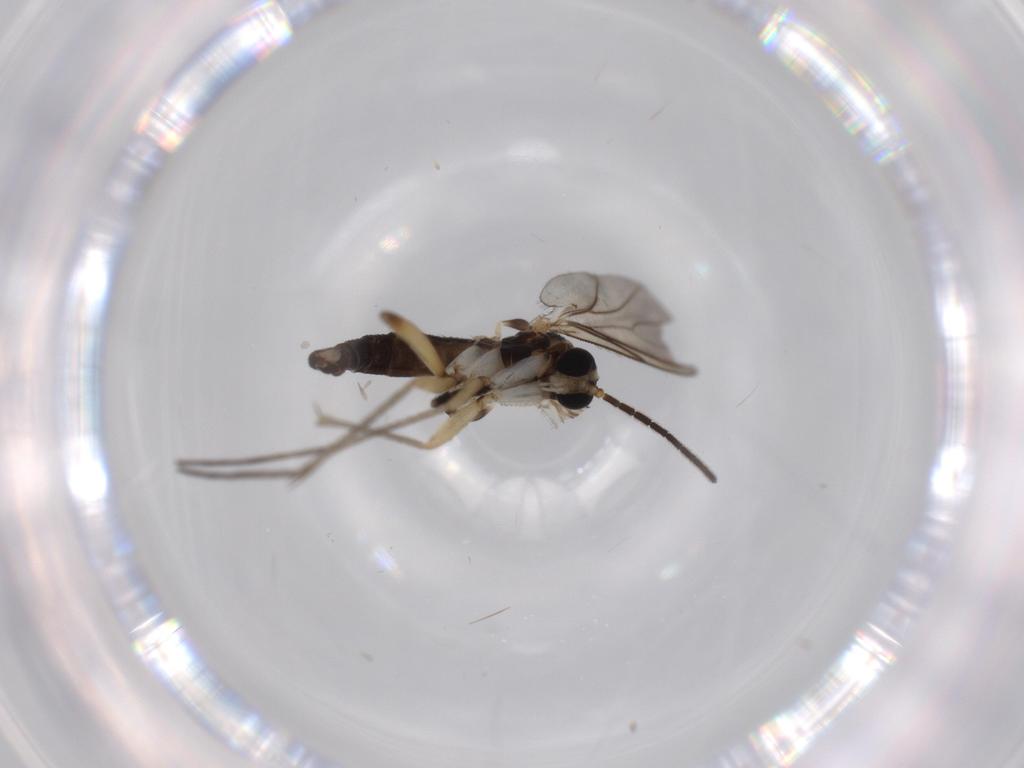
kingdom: Animalia
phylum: Arthropoda
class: Insecta
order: Diptera
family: Sciaridae
